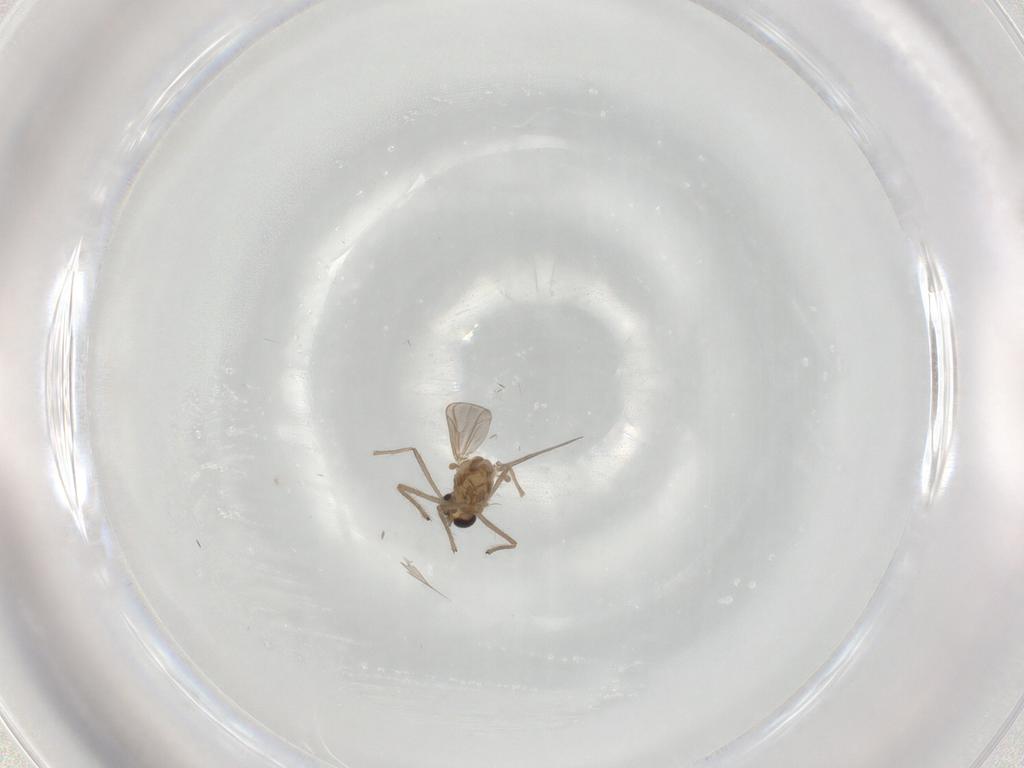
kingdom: Animalia
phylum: Arthropoda
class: Insecta
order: Diptera
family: Chironomidae
